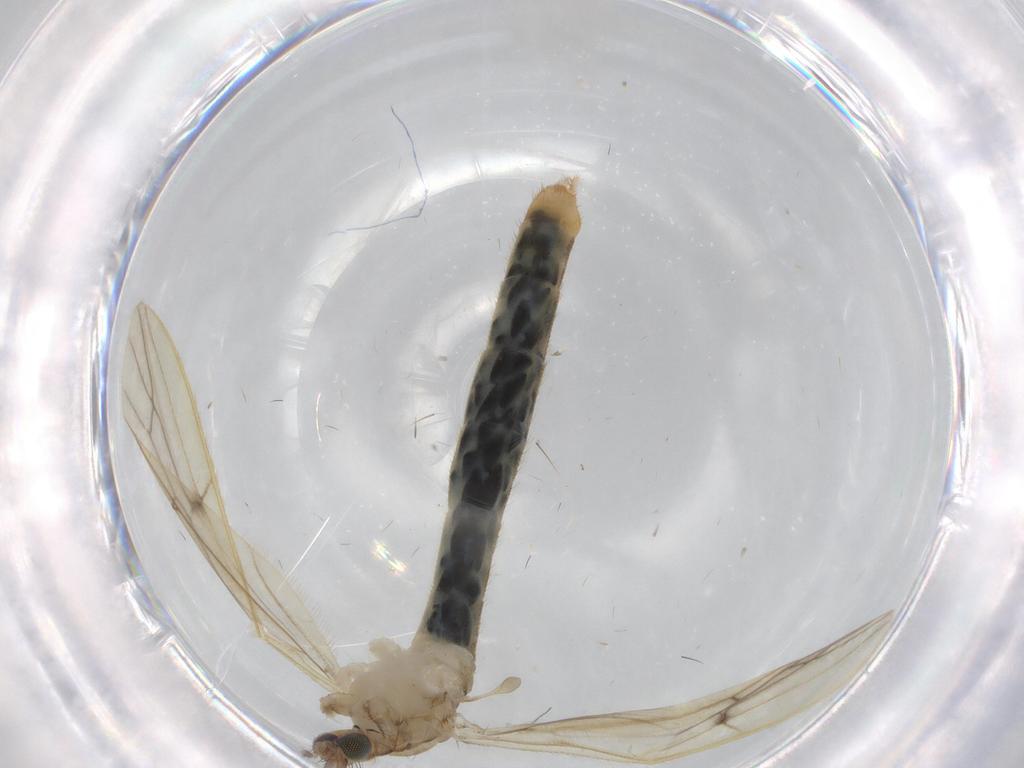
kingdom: Animalia
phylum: Arthropoda
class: Insecta
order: Diptera
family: Limoniidae
